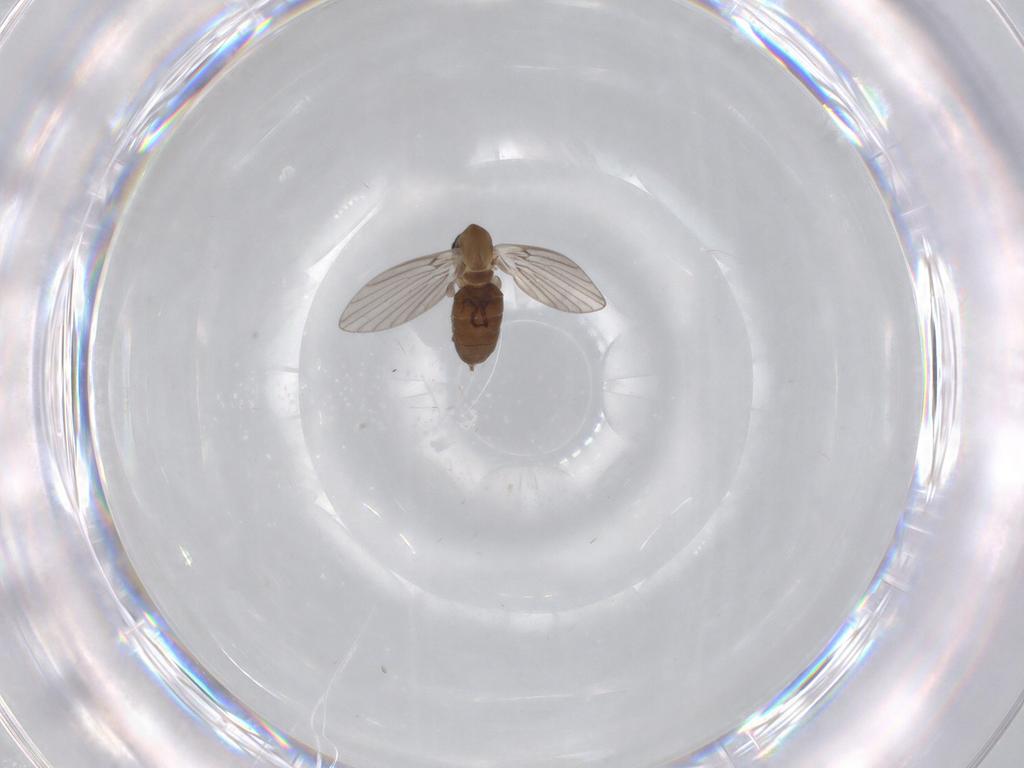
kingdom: Animalia
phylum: Arthropoda
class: Insecta
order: Diptera
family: Psychodidae
